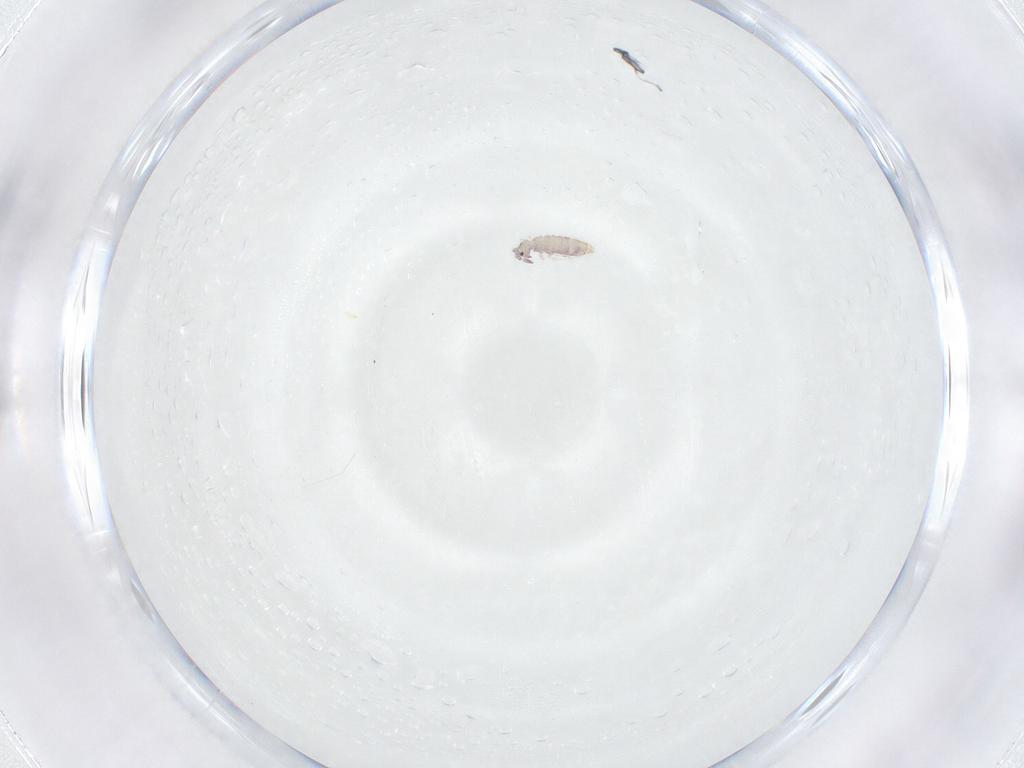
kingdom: Animalia
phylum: Arthropoda
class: Collembola
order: Entomobryomorpha
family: Entomobryidae
